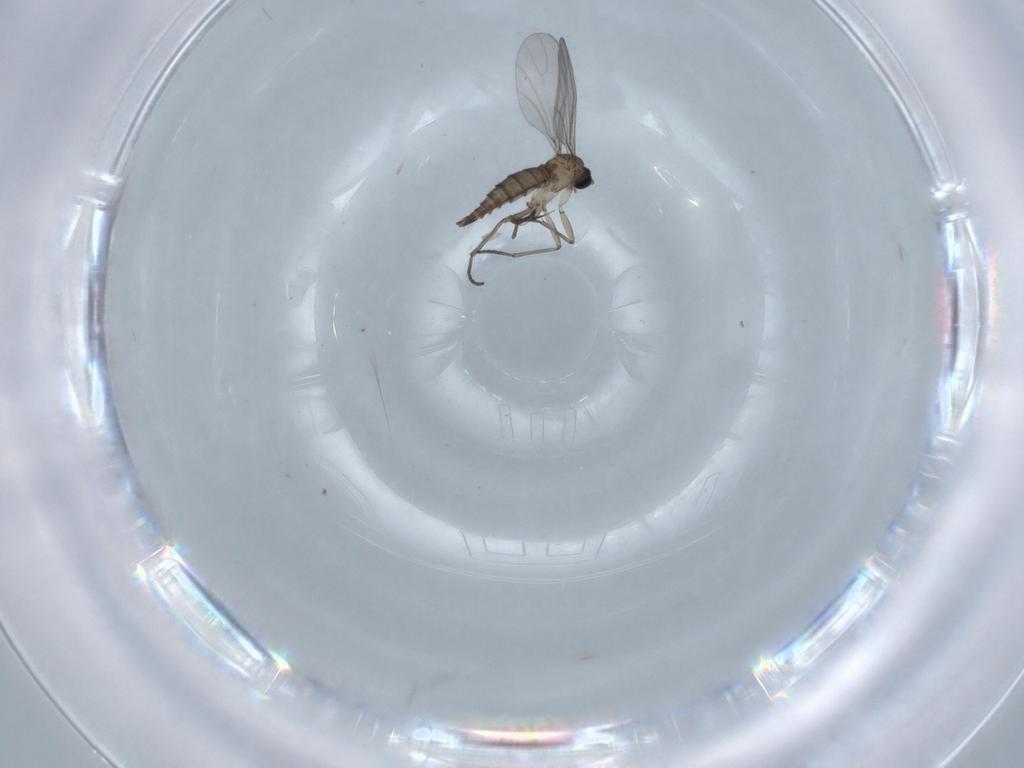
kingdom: Animalia
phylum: Arthropoda
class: Insecta
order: Diptera
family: Sciaridae
